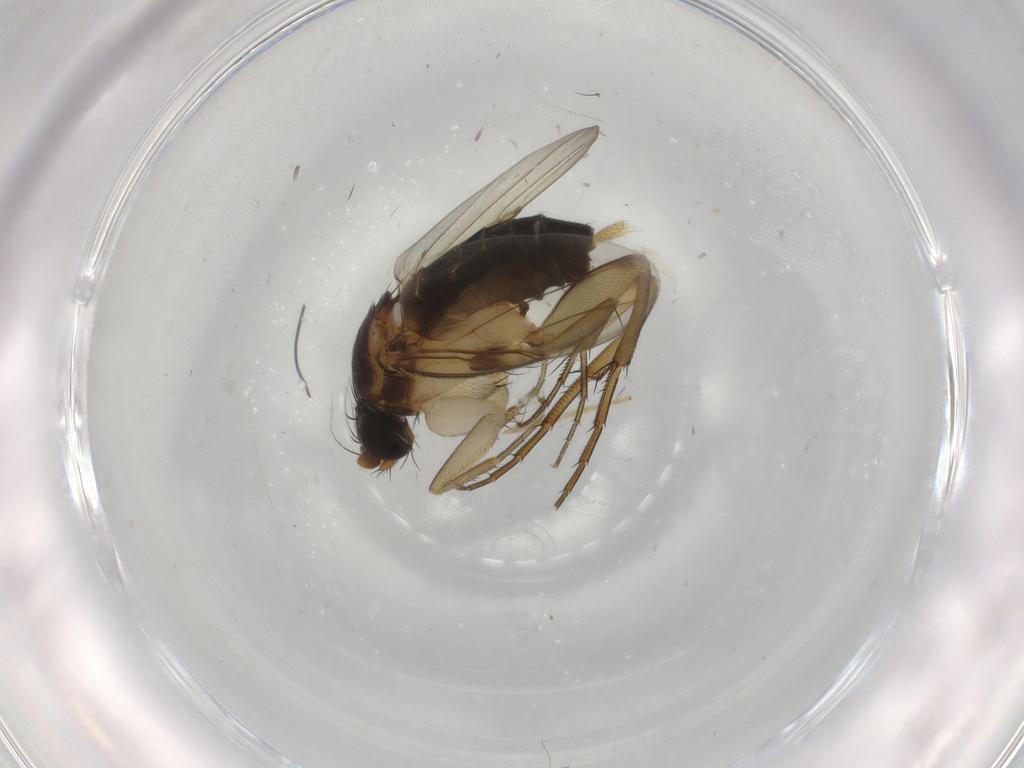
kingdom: Animalia
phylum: Arthropoda
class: Insecta
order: Diptera
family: Phoridae
